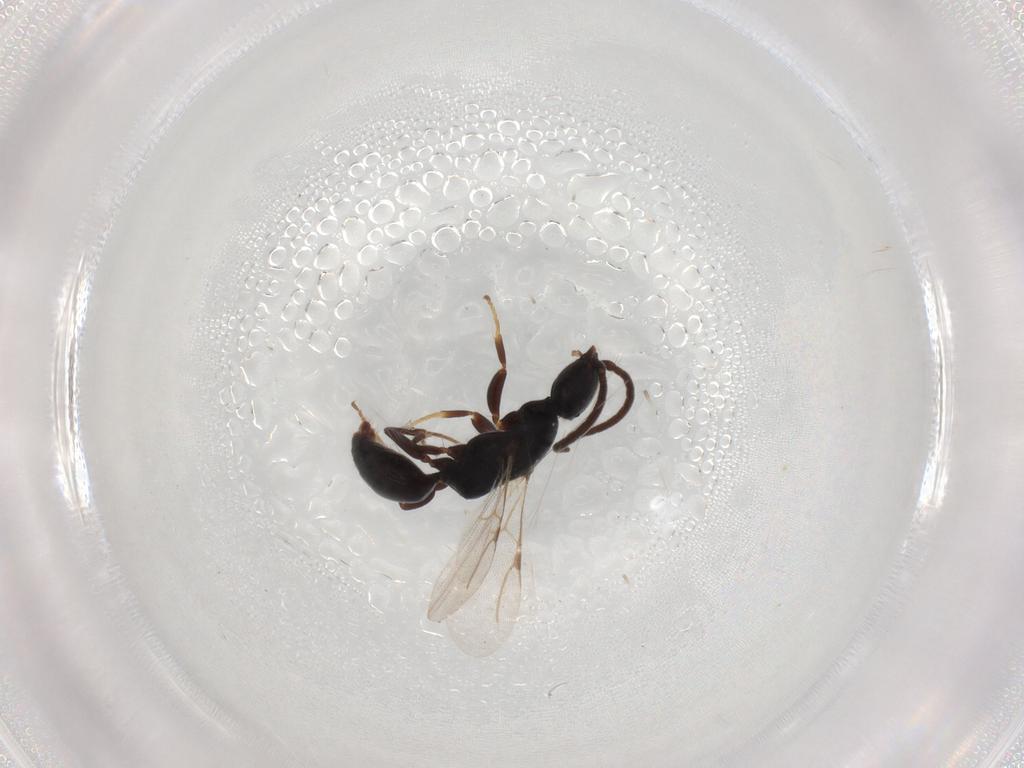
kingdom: Animalia
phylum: Arthropoda
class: Insecta
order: Hymenoptera
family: Bethylidae
